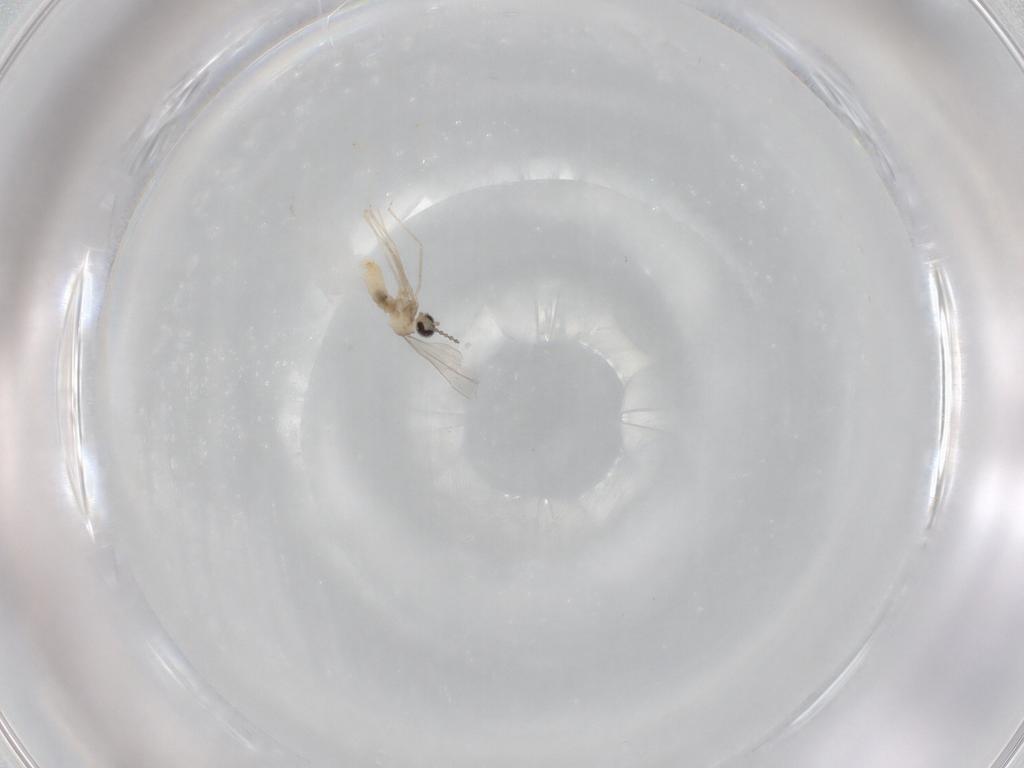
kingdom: Animalia
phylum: Arthropoda
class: Insecta
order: Diptera
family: Cecidomyiidae
